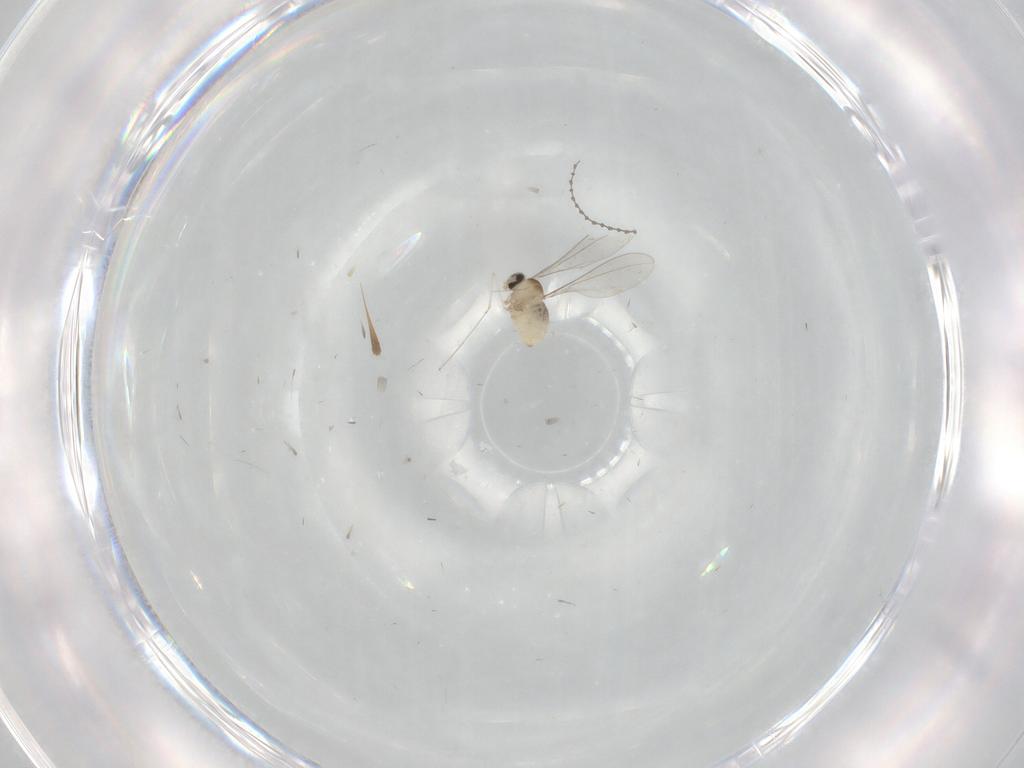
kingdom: Animalia
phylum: Arthropoda
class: Insecta
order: Diptera
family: Cecidomyiidae
